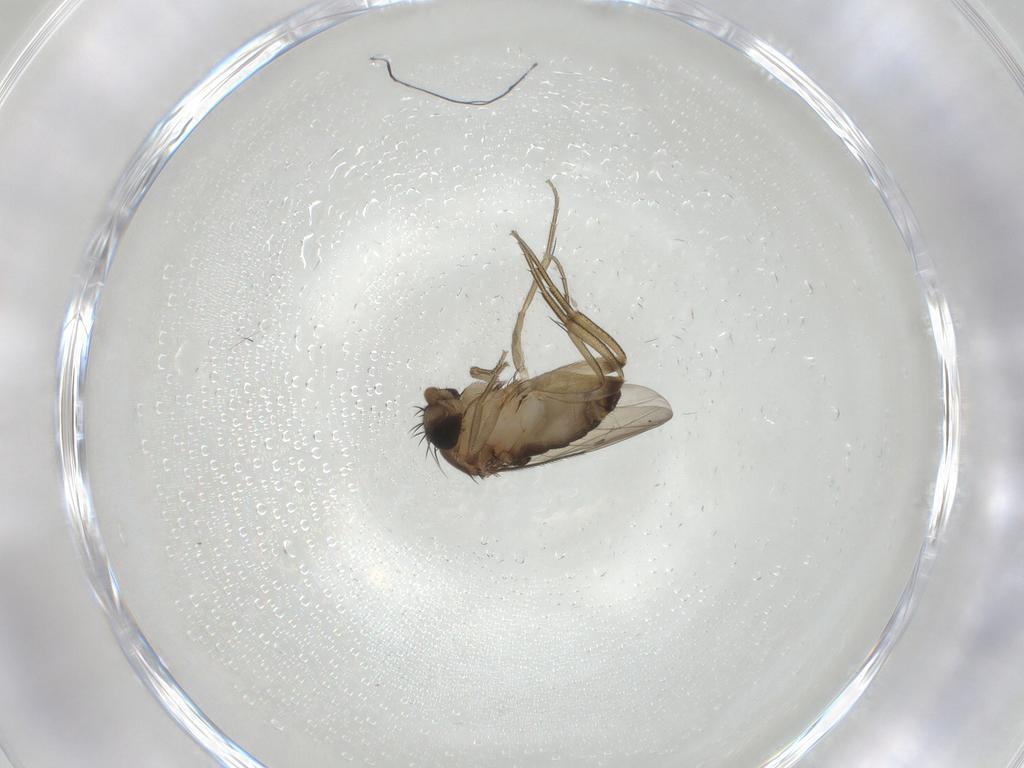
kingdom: Animalia
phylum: Arthropoda
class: Insecta
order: Diptera
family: Phoridae
